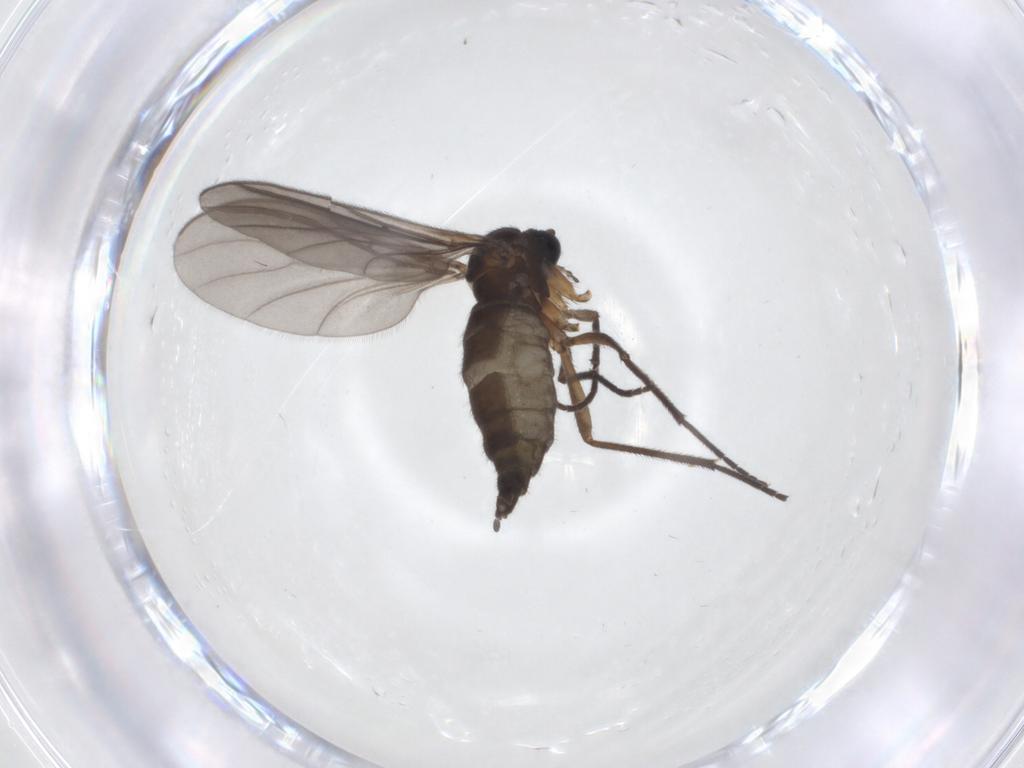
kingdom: Animalia
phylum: Arthropoda
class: Insecta
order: Diptera
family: Sciaridae
